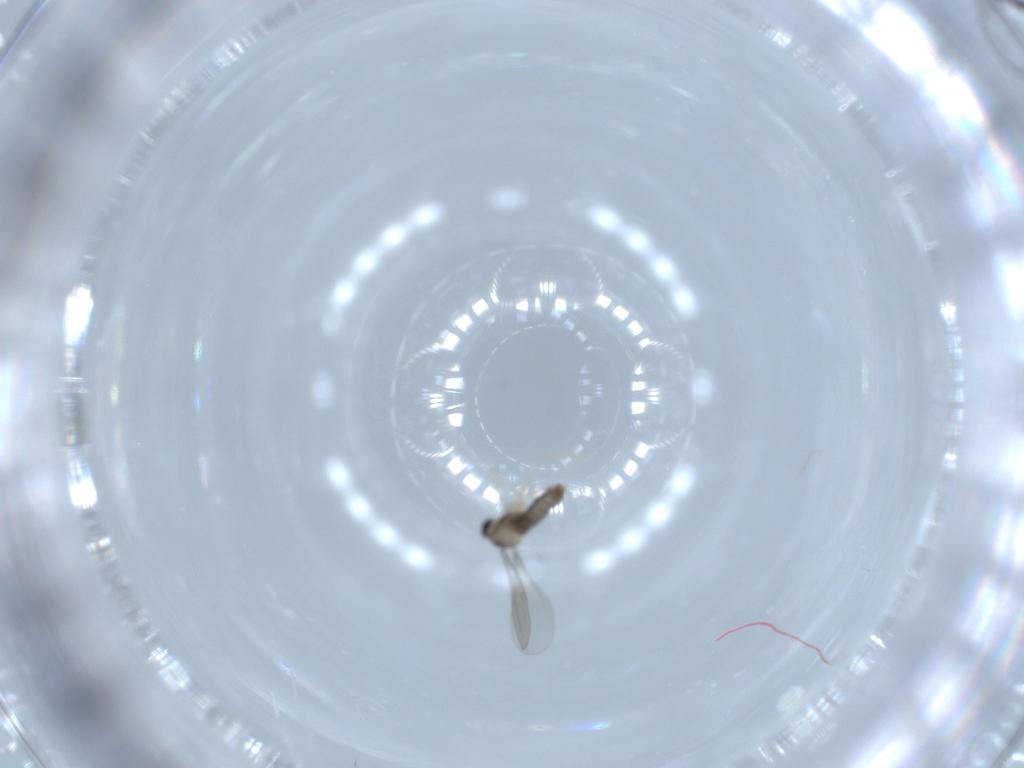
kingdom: Animalia
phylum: Arthropoda
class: Insecta
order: Diptera
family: Cecidomyiidae
